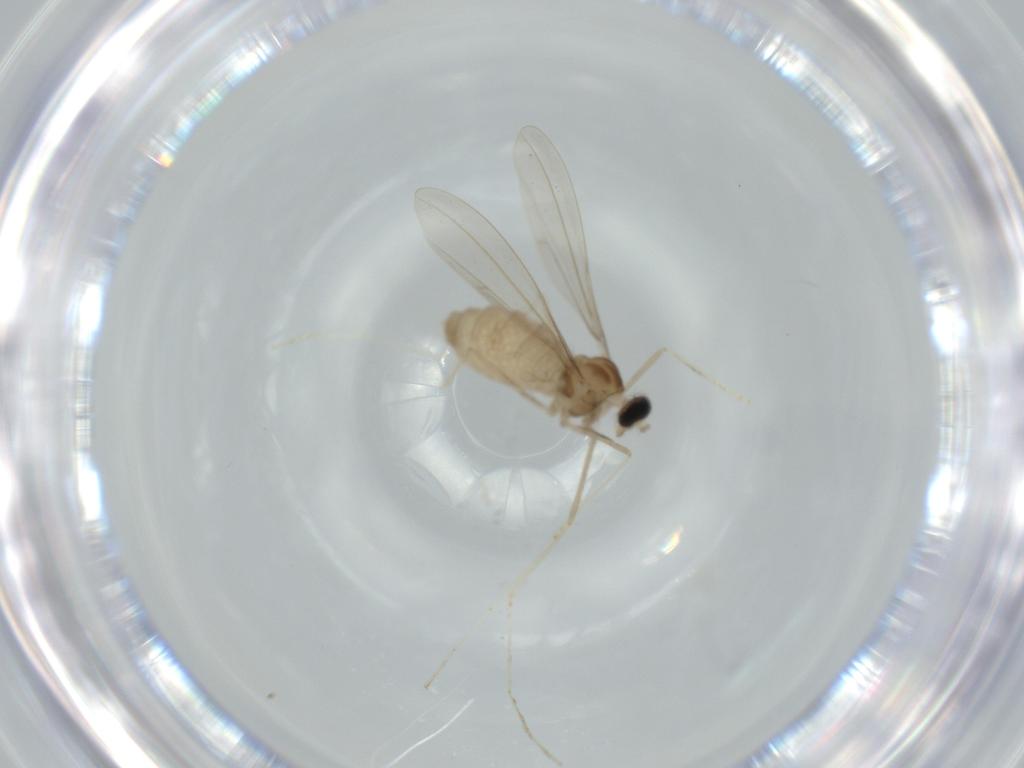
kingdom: Animalia
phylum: Arthropoda
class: Insecta
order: Diptera
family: Cecidomyiidae
